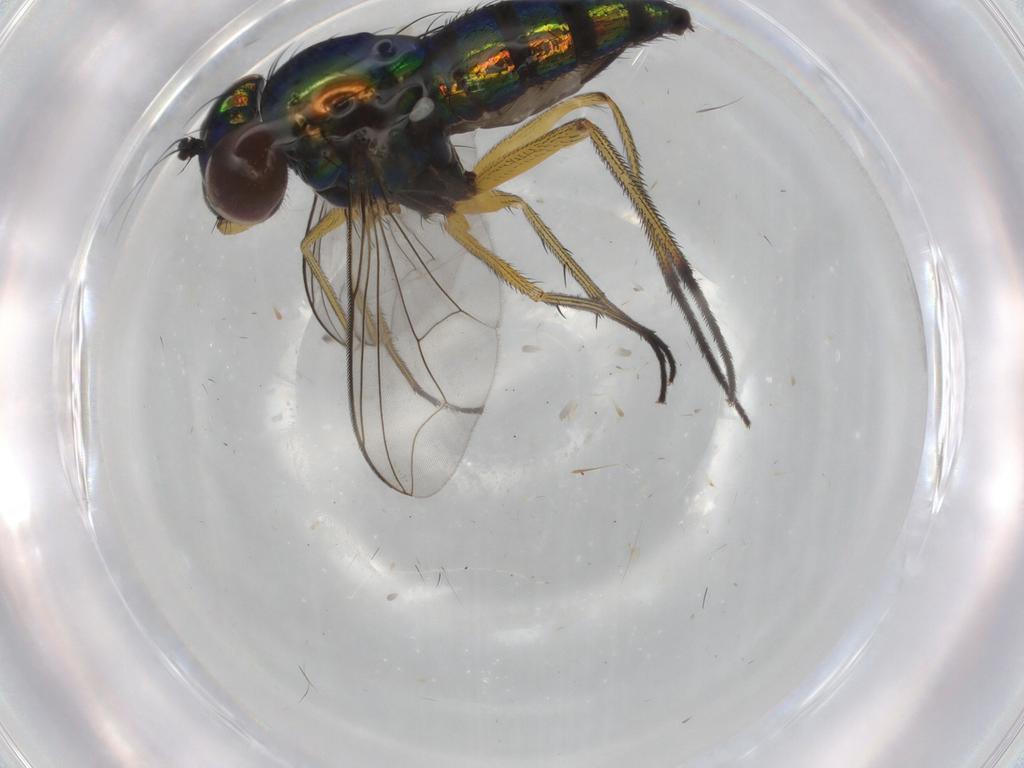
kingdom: Animalia
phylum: Arthropoda
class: Insecta
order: Diptera
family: Dolichopodidae
